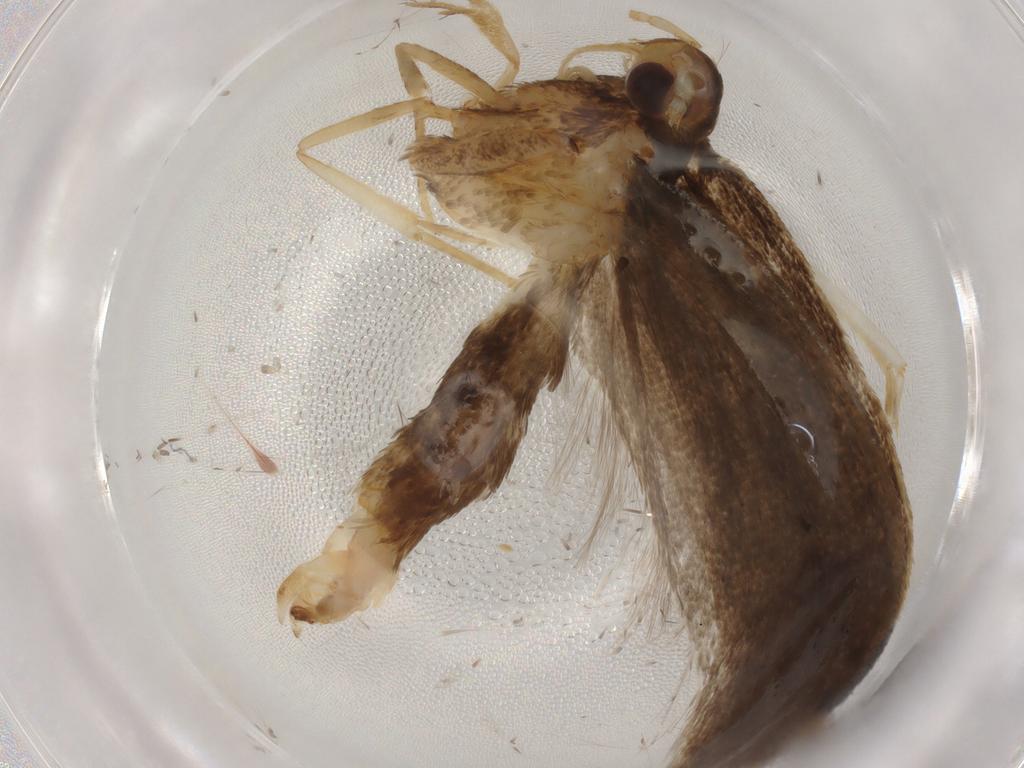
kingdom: Animalia
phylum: Arthropoda
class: Insecta
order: Lepidoptera
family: Lecithoceridae
